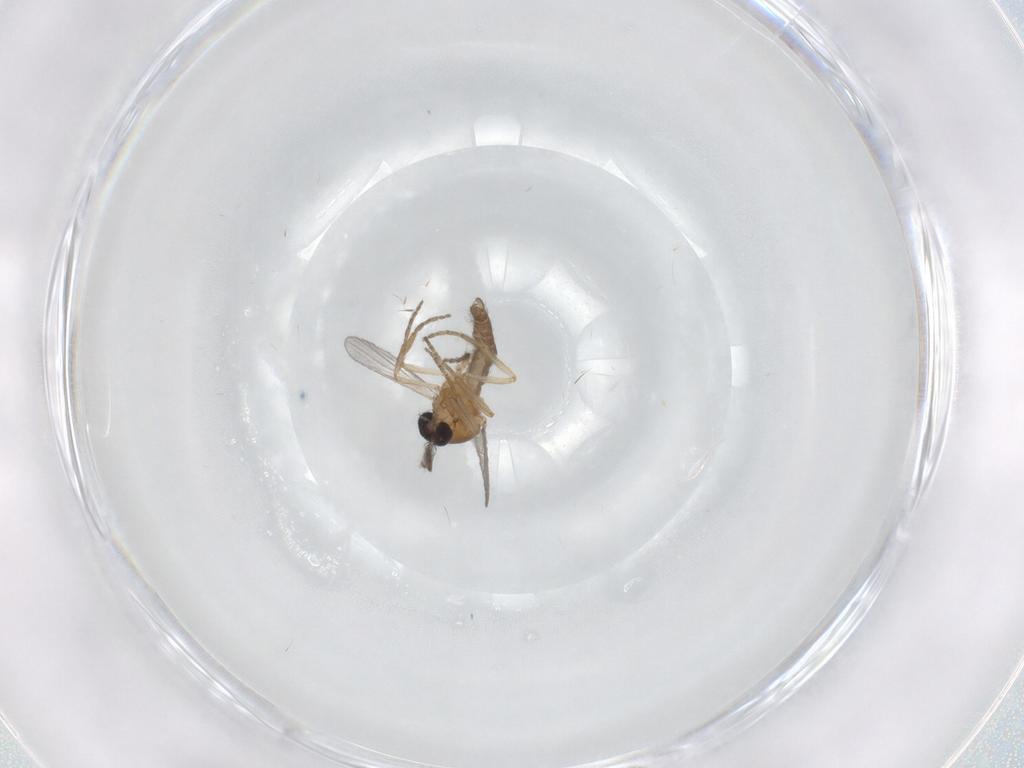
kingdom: Animalia
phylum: Arthropoda
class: Insecta
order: Diptera
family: Ceratopogonidae
